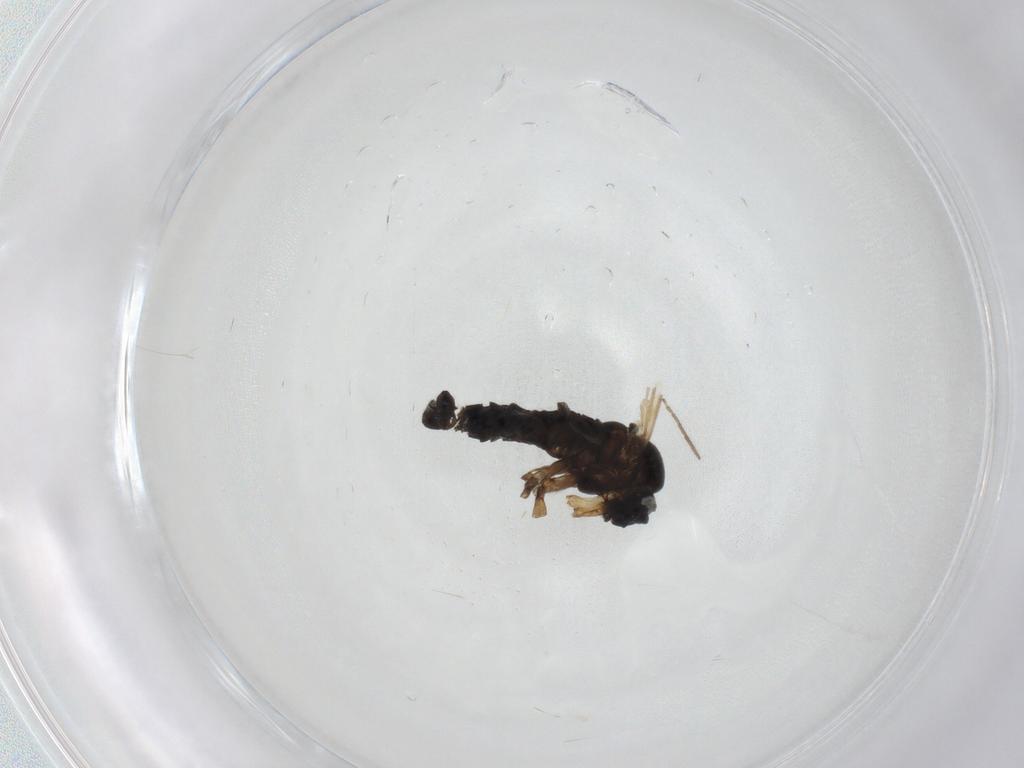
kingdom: Animalia
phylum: Arthropoda
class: Insecta
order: Diptera
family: Sciaridae
